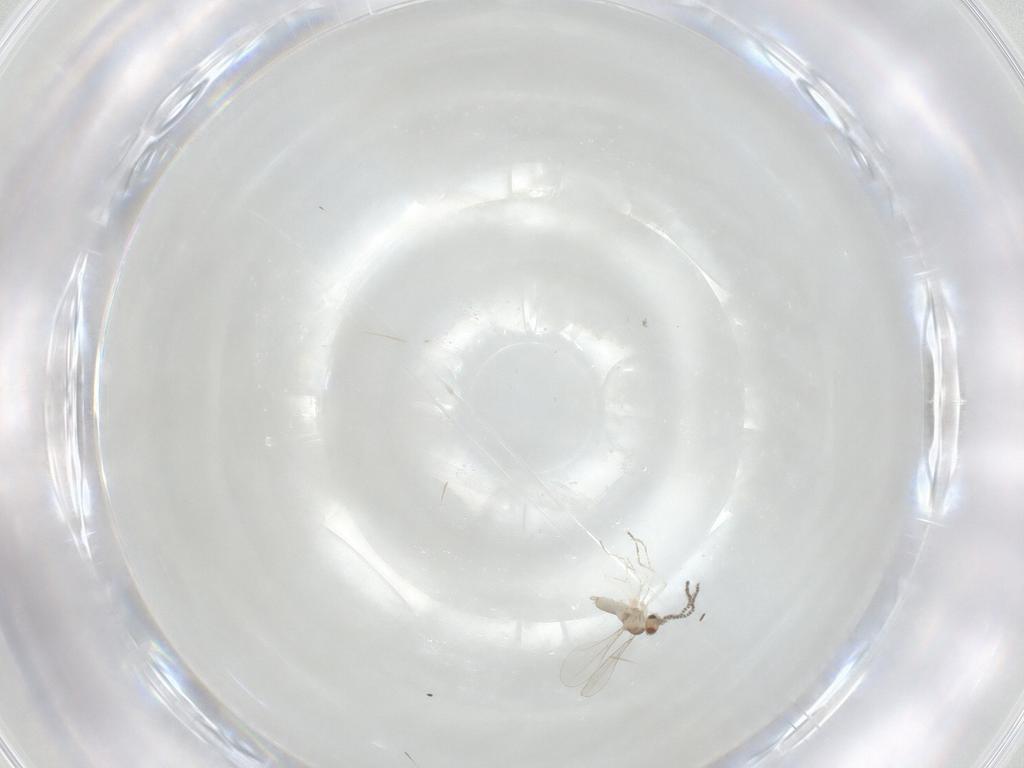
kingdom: Animalia
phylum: Arthropoda
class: Insecta
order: Diptera
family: Cecidomyiidae
